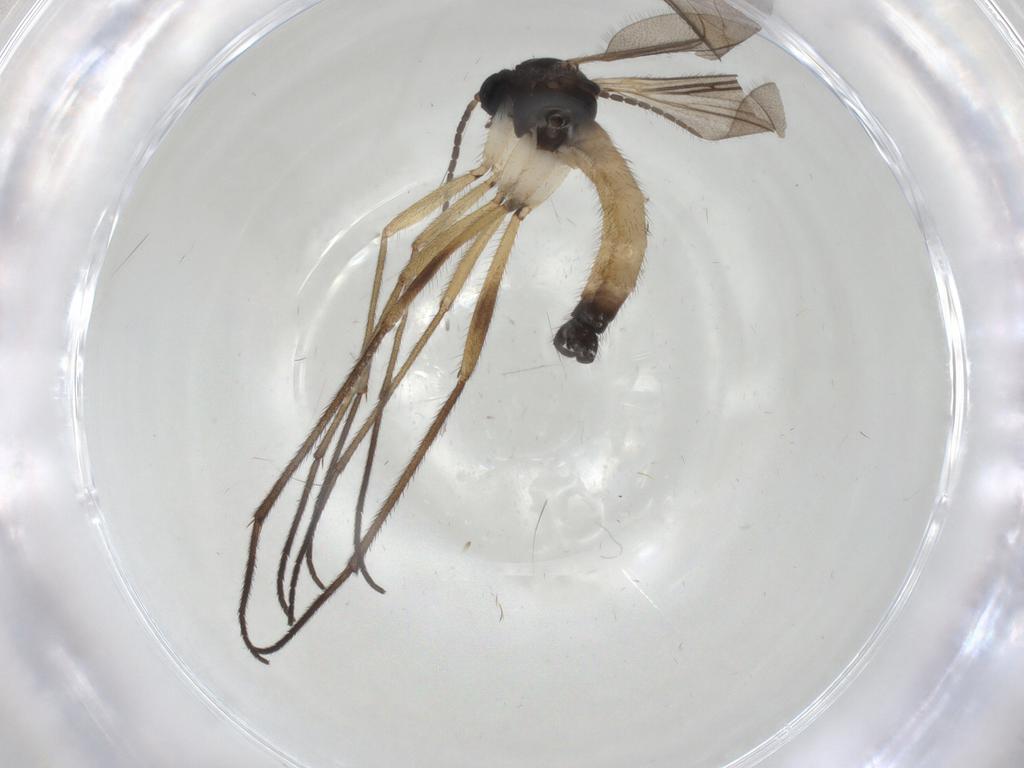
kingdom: Animalia
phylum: Arthropoda
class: Insecta
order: Diptera
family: Sciaridae
